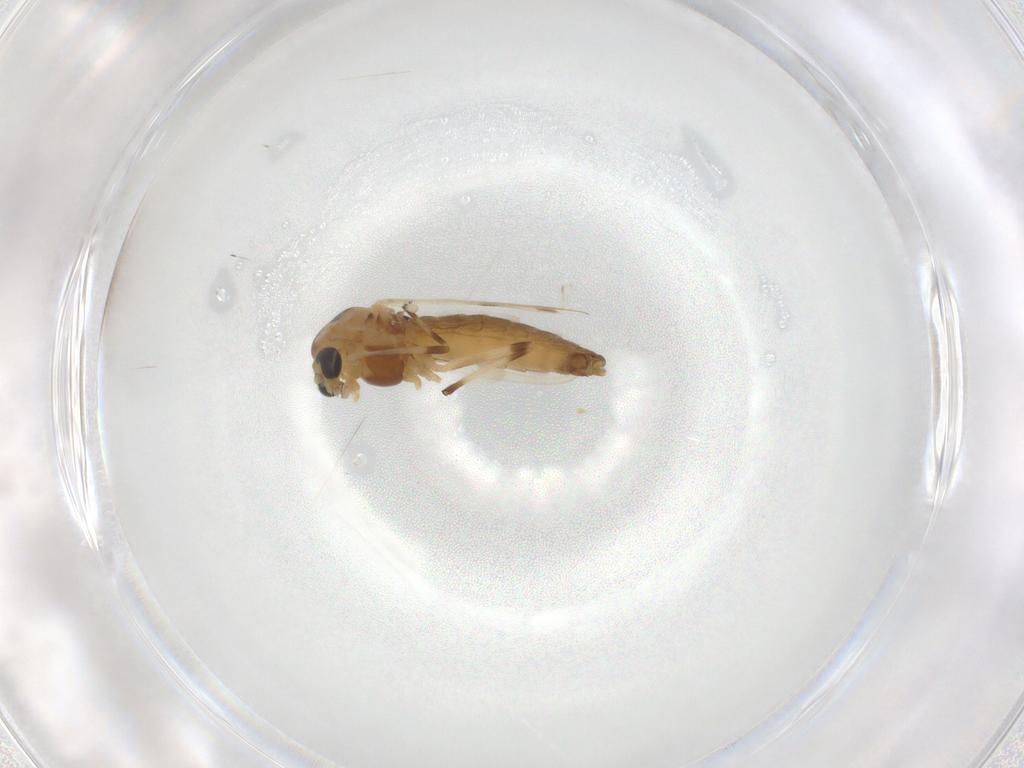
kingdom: Animalia
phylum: Arthropoda
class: Insecta
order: Diptera
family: Chironomidae
